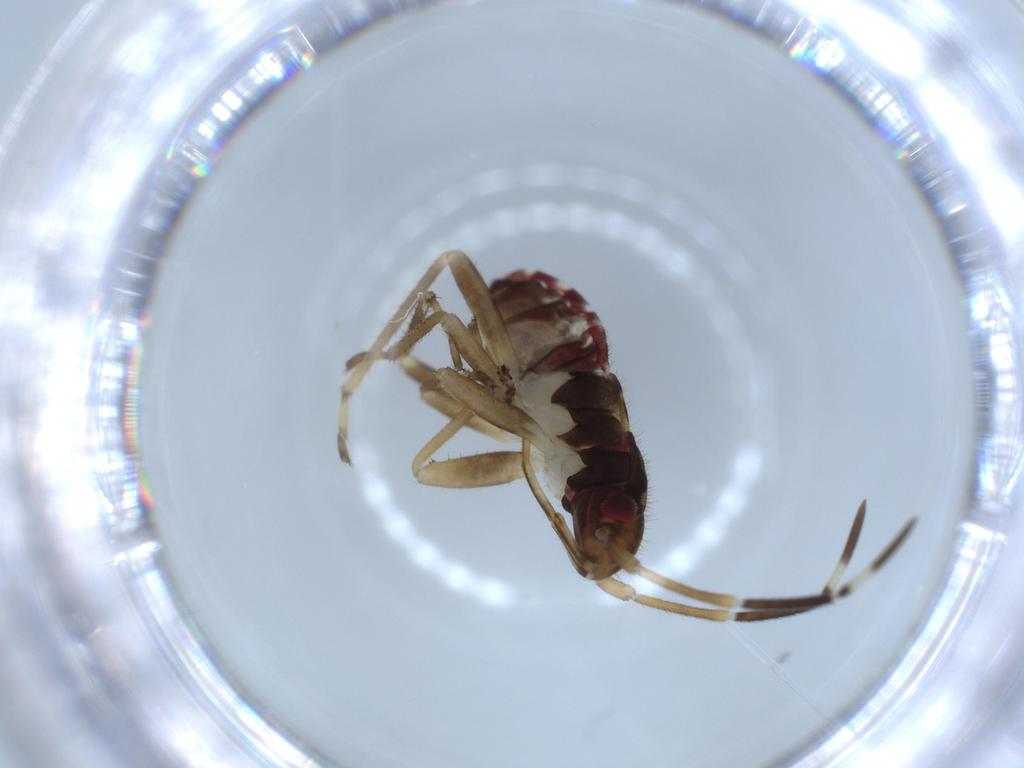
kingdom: Animalia
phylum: Arthropoda
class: Insecta
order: Hemiptera
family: Rhyparochromidae
